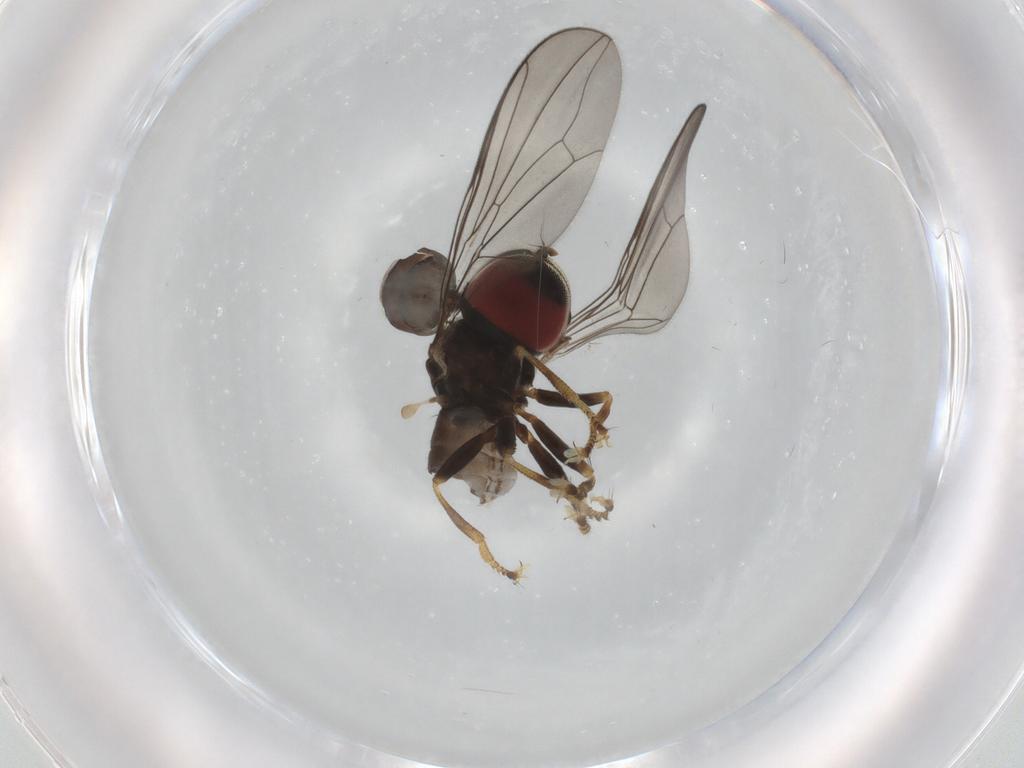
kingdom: Animalia
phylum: Arthropoda
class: Insecta
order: Diptera
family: Pipunculidae
